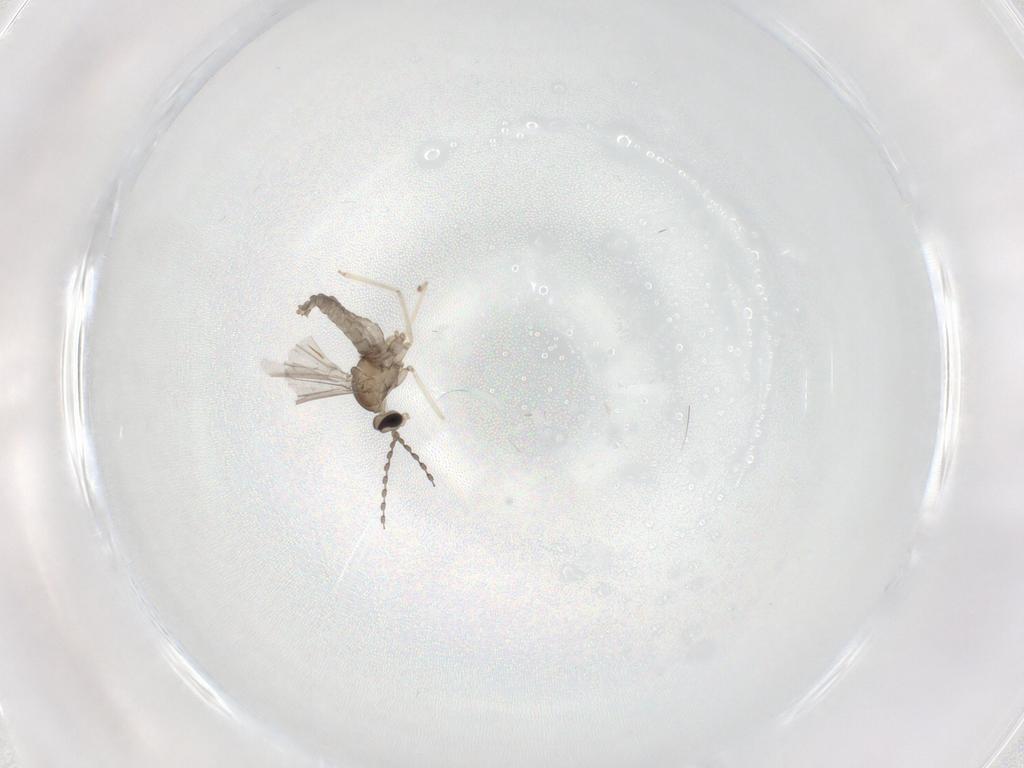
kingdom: Animalia
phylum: Arthropoda
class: Insecta
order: Diptera
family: Cecidomyiidae
